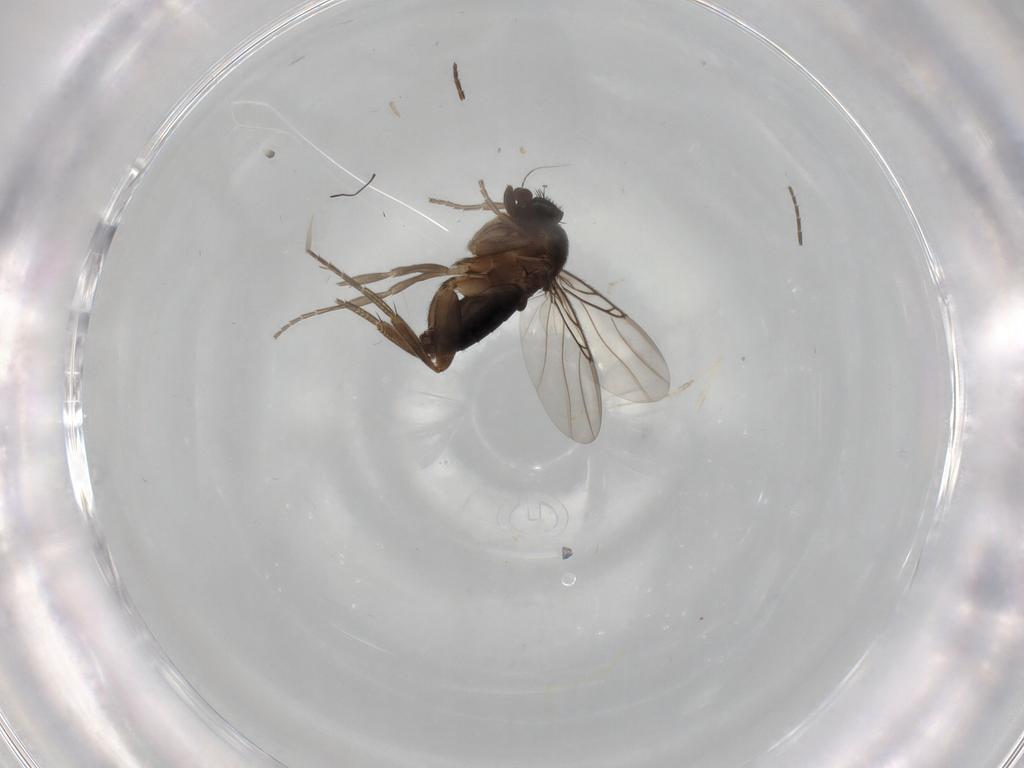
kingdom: Animalia
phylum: Arthropoda
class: Insecta
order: Diptera
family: Phoridae
